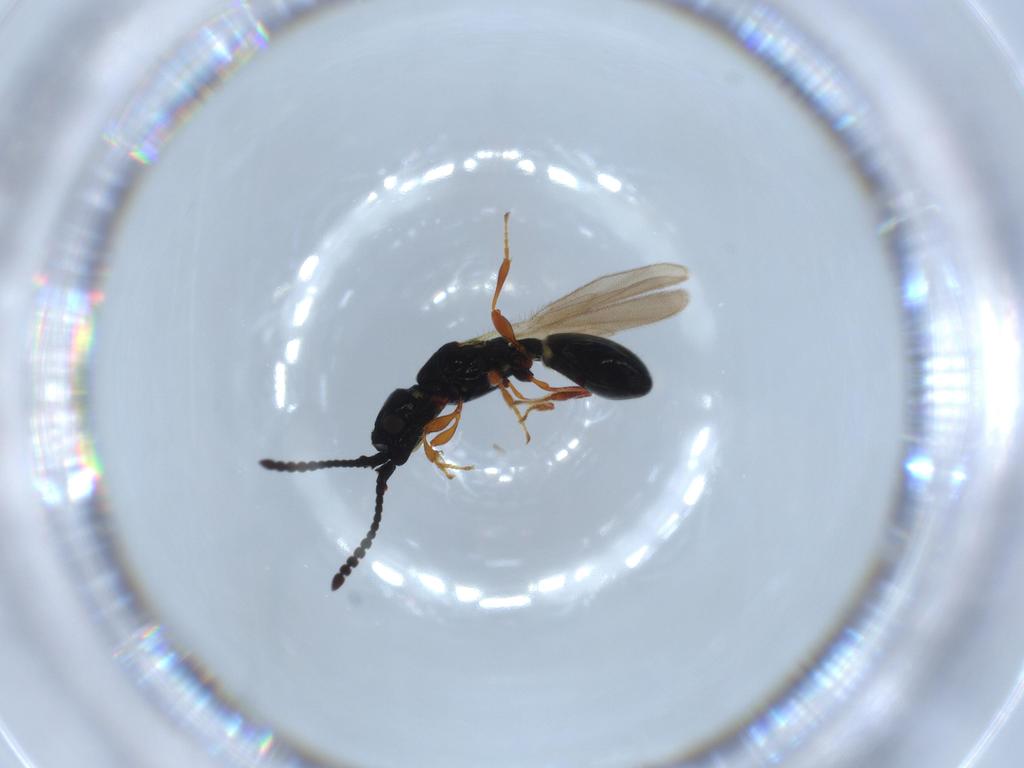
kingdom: Animalia
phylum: Arthropoda
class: Insecta
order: Hymenoptera
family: Diapriidae
